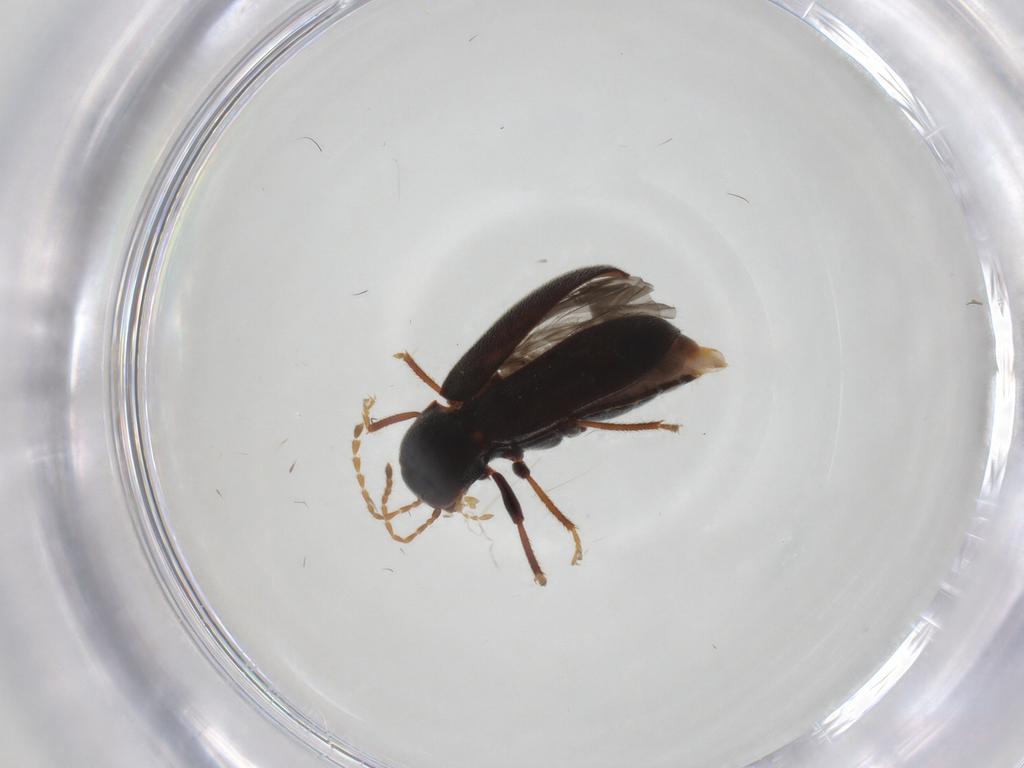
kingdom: Animalia
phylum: Arthropoda
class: Insecta
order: Coleoptera
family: Ptilodactylidae
